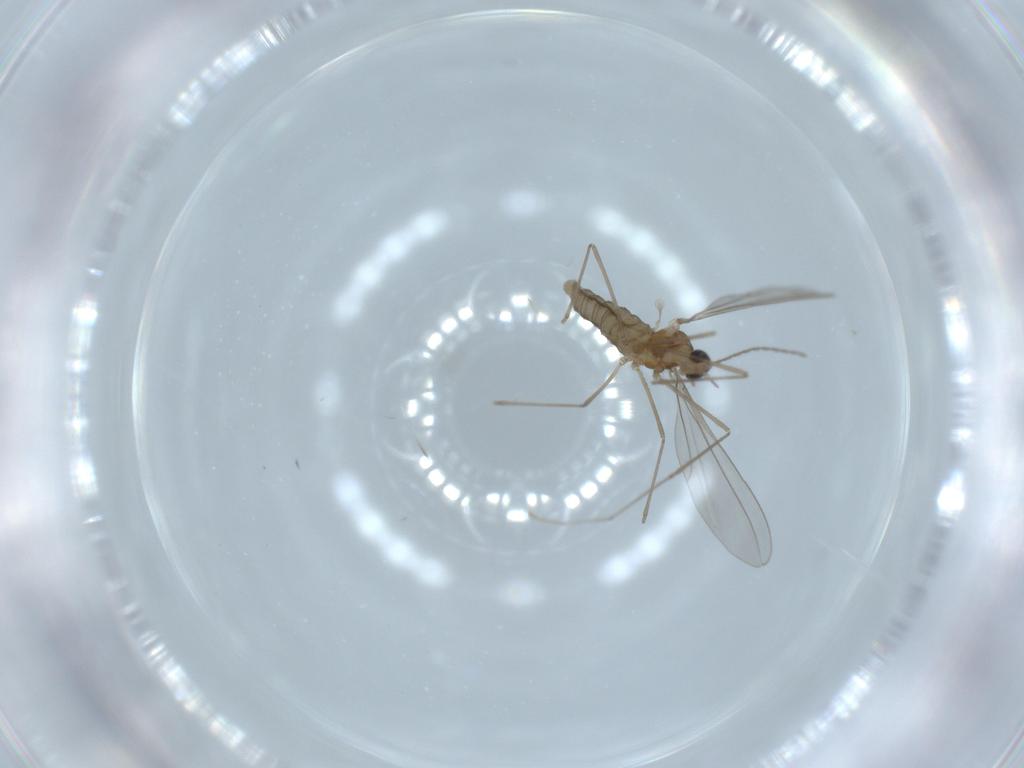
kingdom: Animalia
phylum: Arthropoda
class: Insecta
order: Diptera
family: Cecidomyiidae
